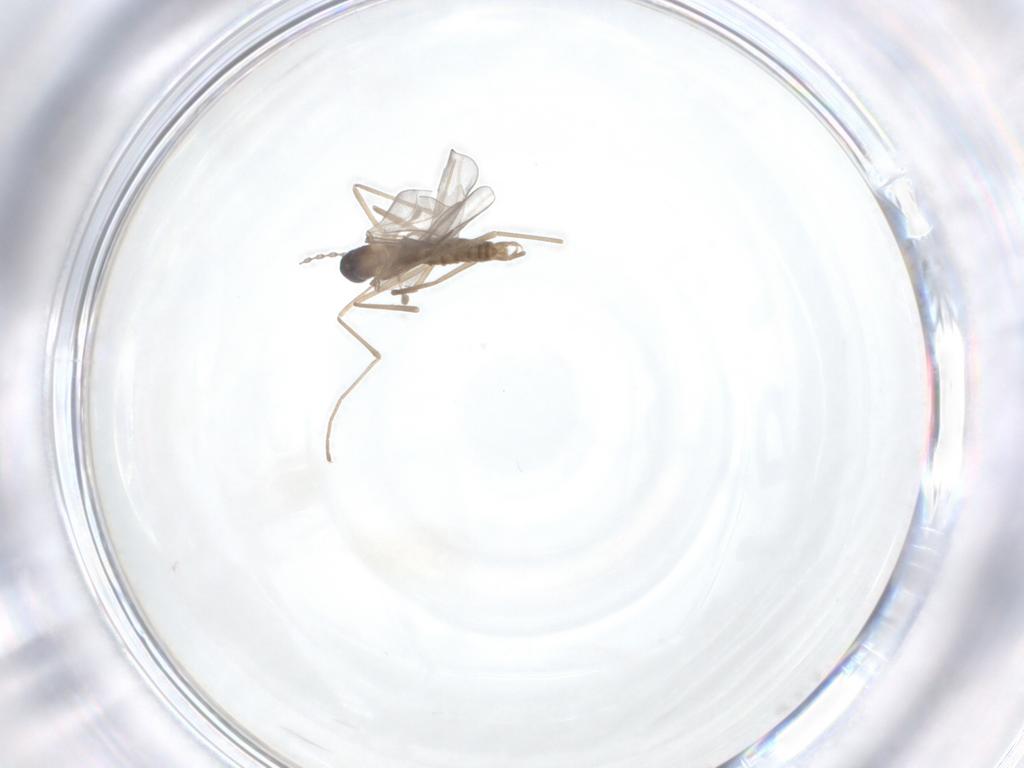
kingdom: Animalia
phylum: Arthropoda
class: Insecta
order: Diptera
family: Cecidomyiidae
